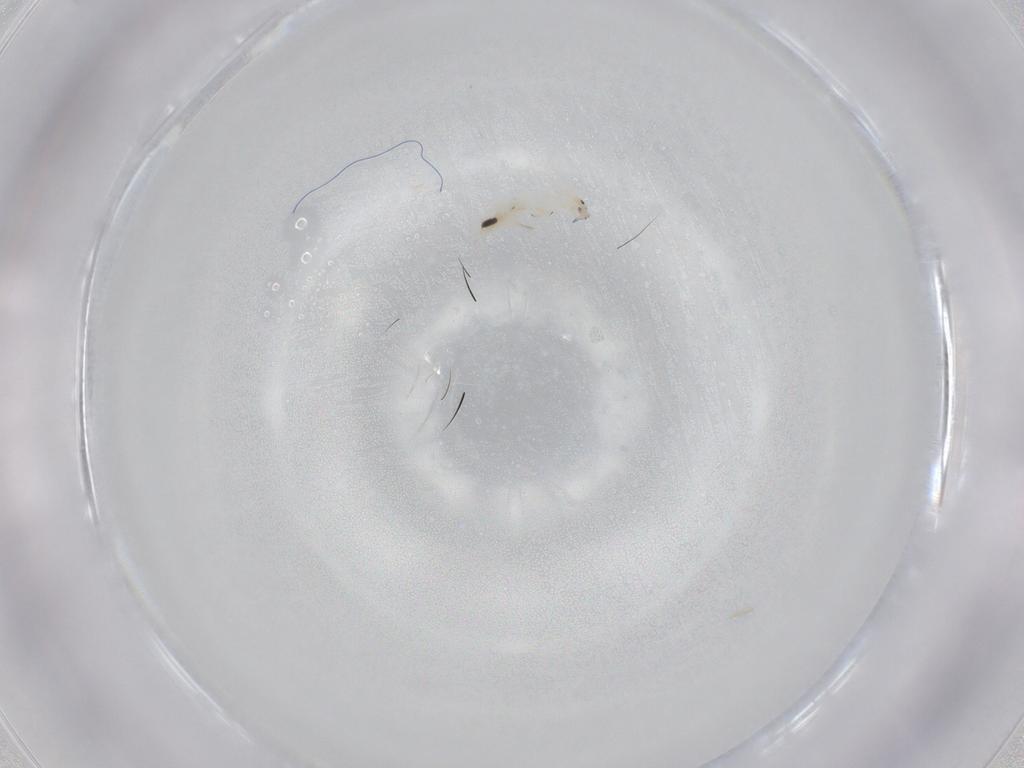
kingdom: Animalia
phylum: Arthropoda
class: Collembola
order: Entomobryomorpha
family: Entomobryidae
